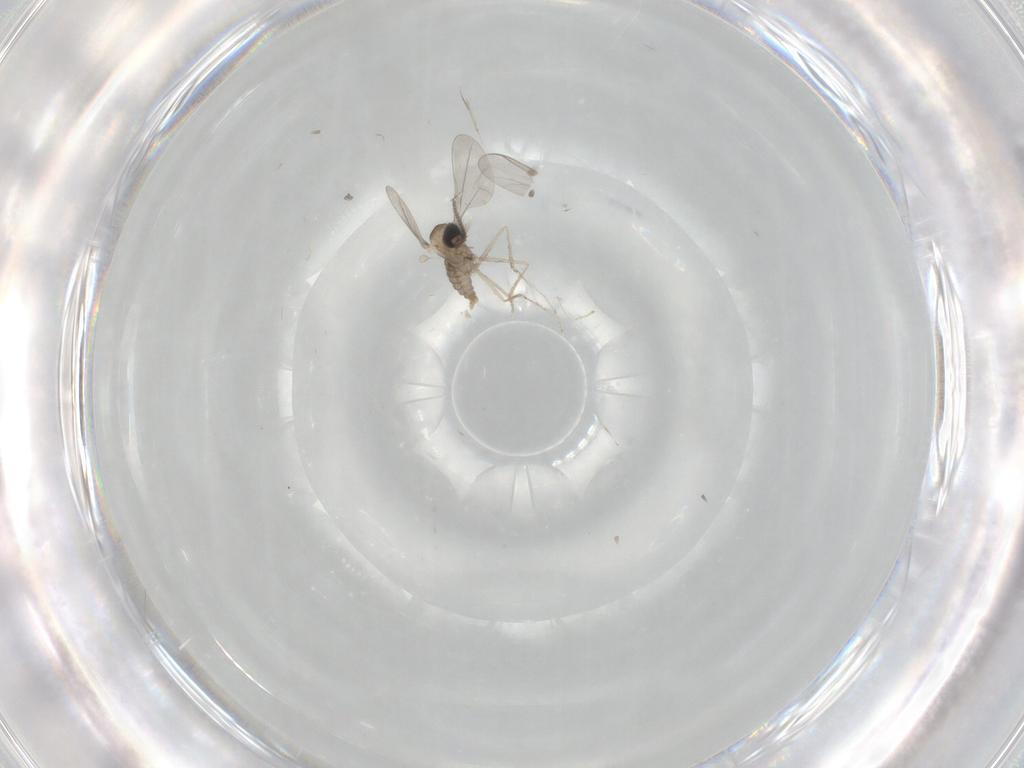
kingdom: Animalia
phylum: Arthropoda
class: Insecta
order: Diptera
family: Cecidomyiidae
